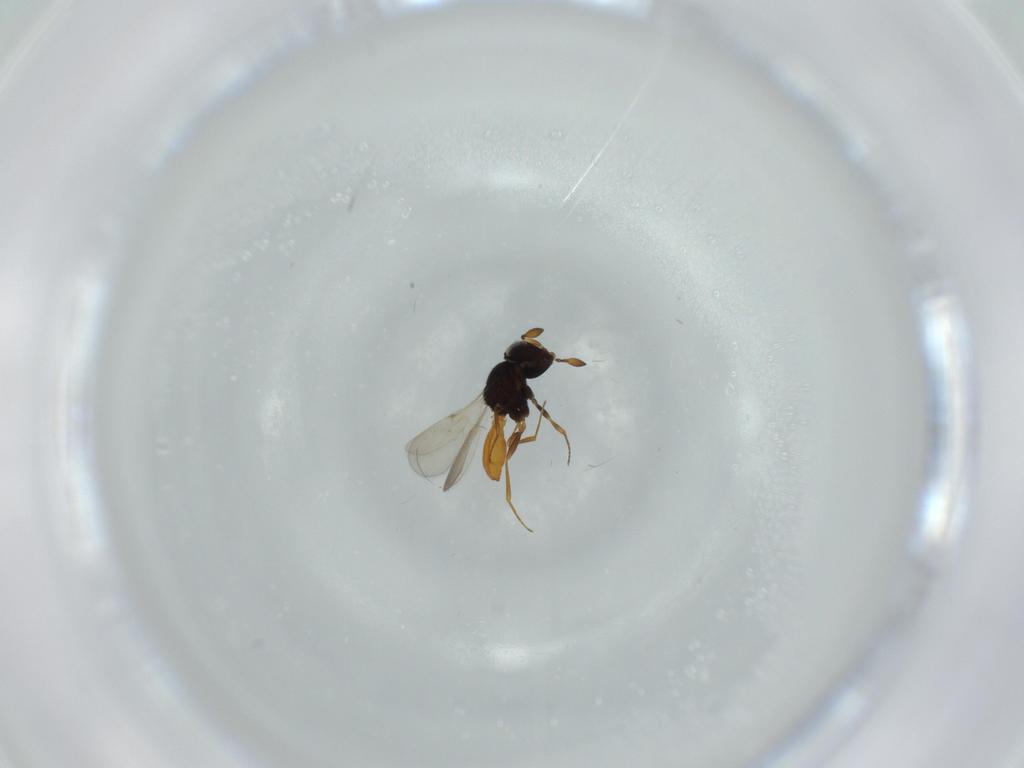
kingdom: Animalia
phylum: Arthropoda
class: Insecta
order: Hymenoptera
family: Scelionidae
